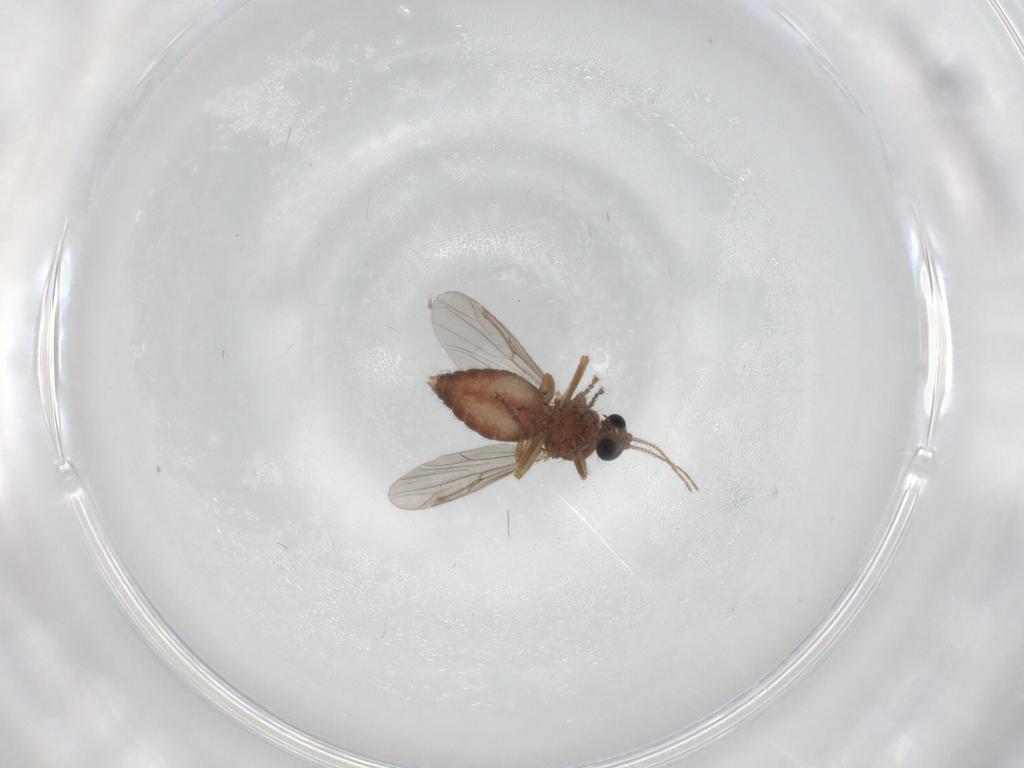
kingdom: Animalia
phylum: Arthropoda
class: Insecta
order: Diptera
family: Ceratopogonidae
